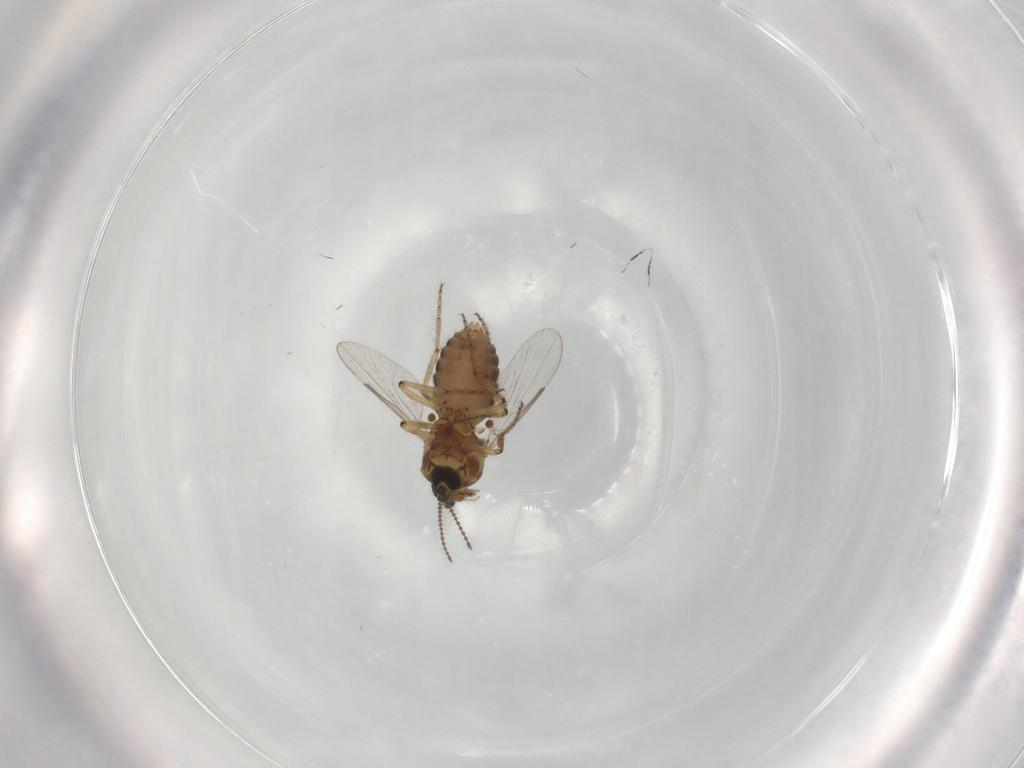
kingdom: Animalia
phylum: Arthropoda
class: Insecta
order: Diptera
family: Ceratopogonidae
